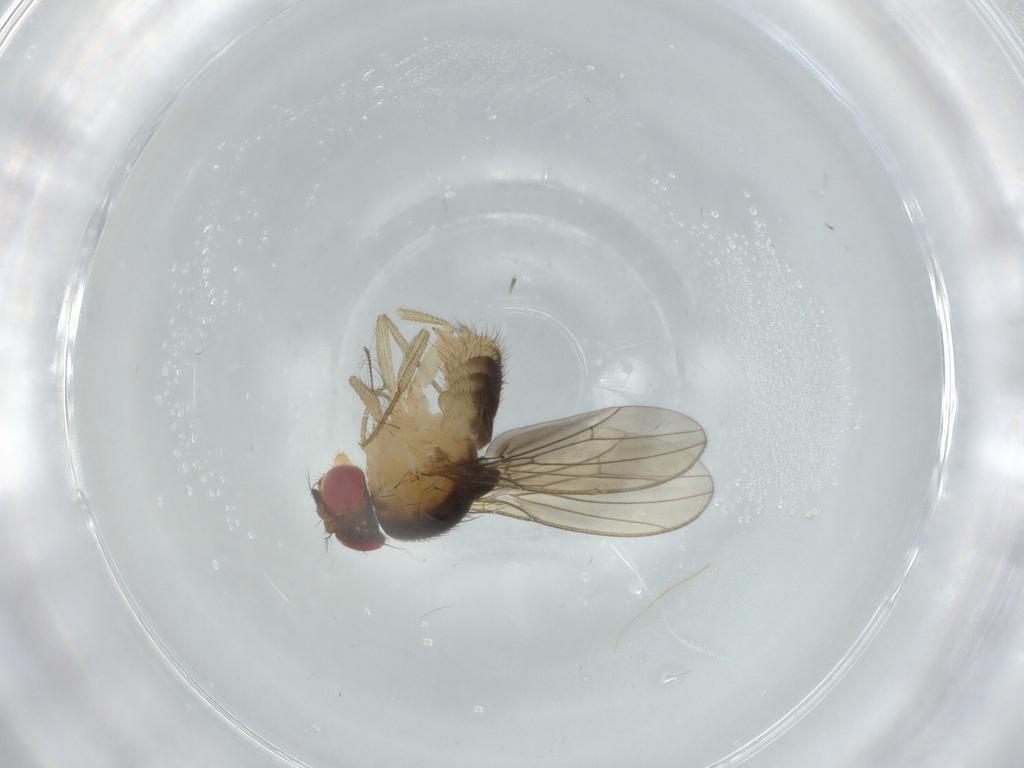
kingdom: Animalia
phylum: Arthropoda
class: Insecta
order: Diptera
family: Drosophilidae
